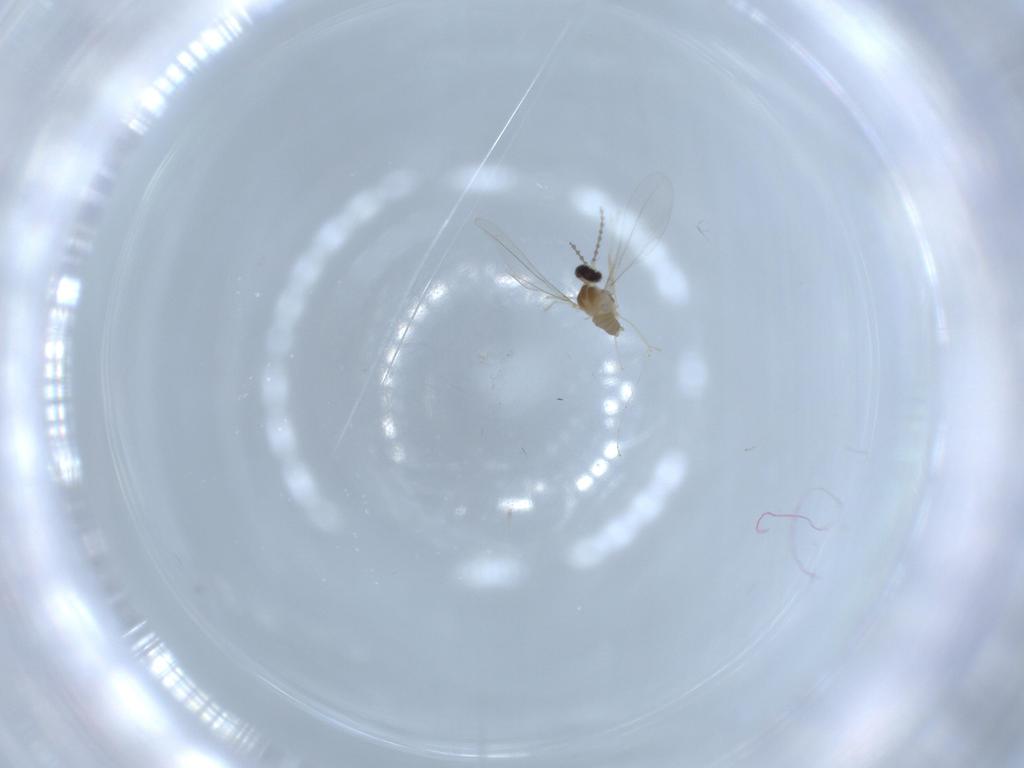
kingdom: Animalia
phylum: Arthropoda
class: Insecta
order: Diptera
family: Cecidomyiidae
